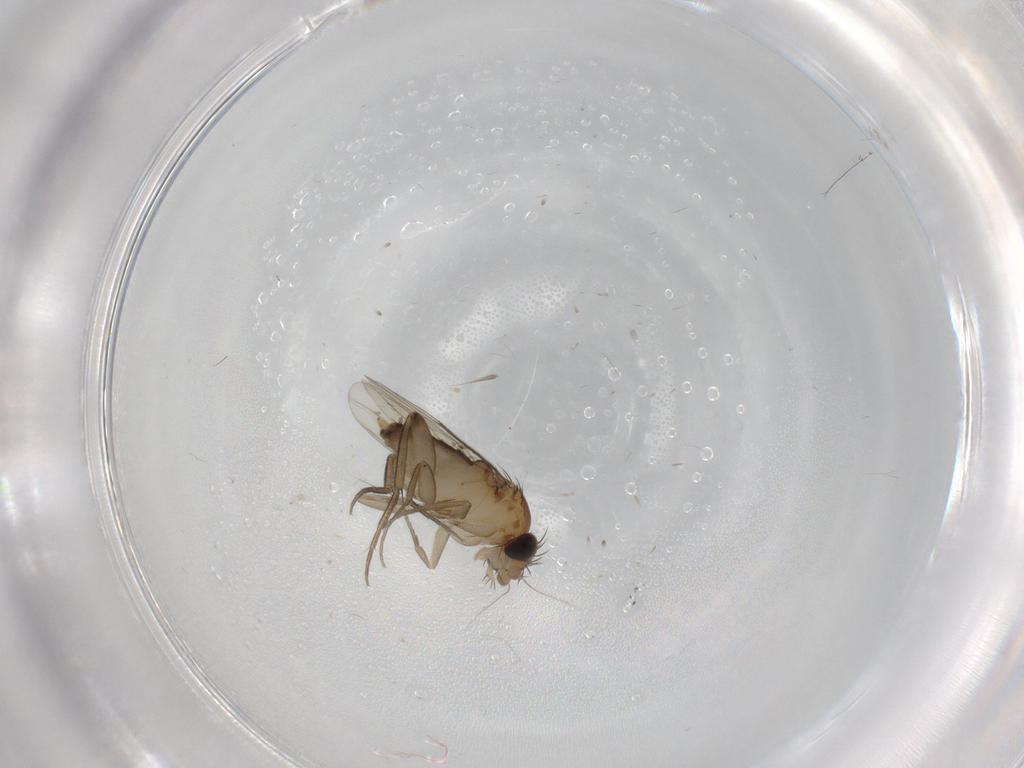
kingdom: Animalia
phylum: Arthropoda
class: Insecta
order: Diptera
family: Phoridae
